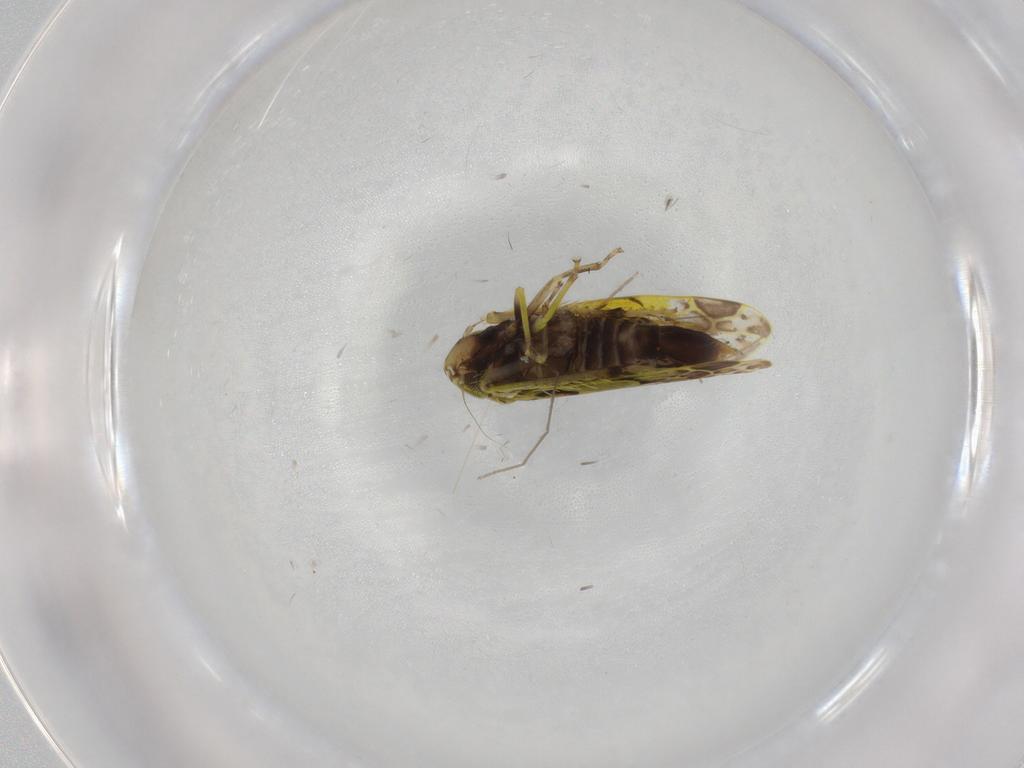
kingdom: Animalia
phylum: Arthropoda
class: Insecta
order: Hemiptera
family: Cicadellidae
